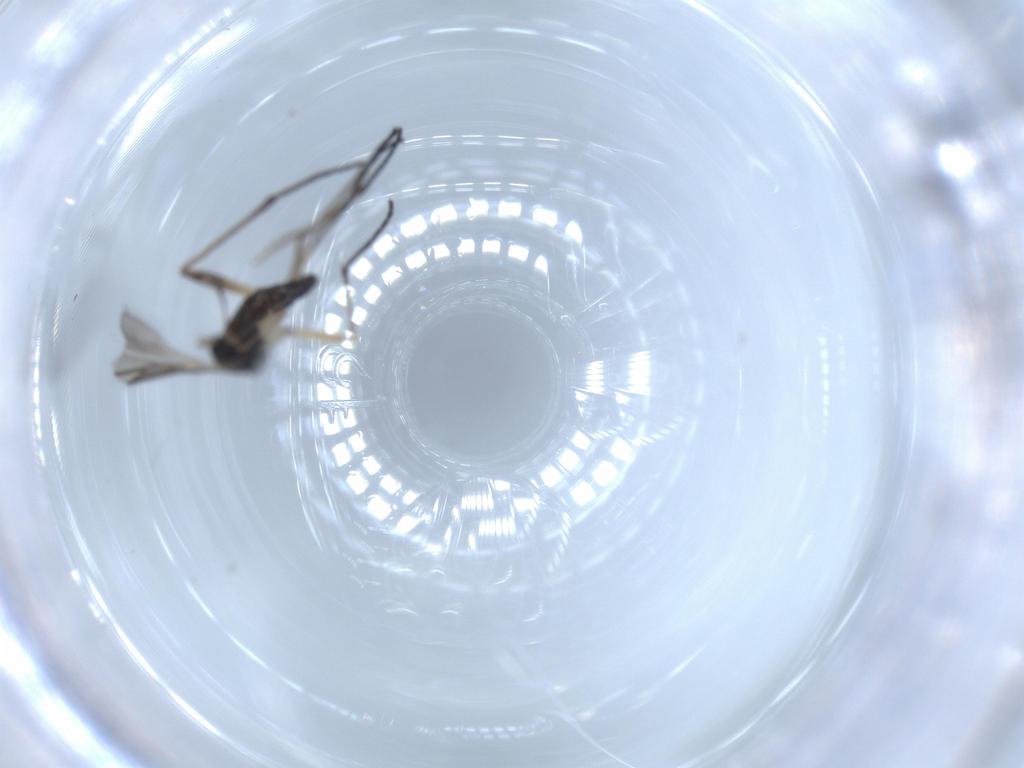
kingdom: Animalia
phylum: Arthropoda
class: Insecta
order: Diptera
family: Sciaridae
